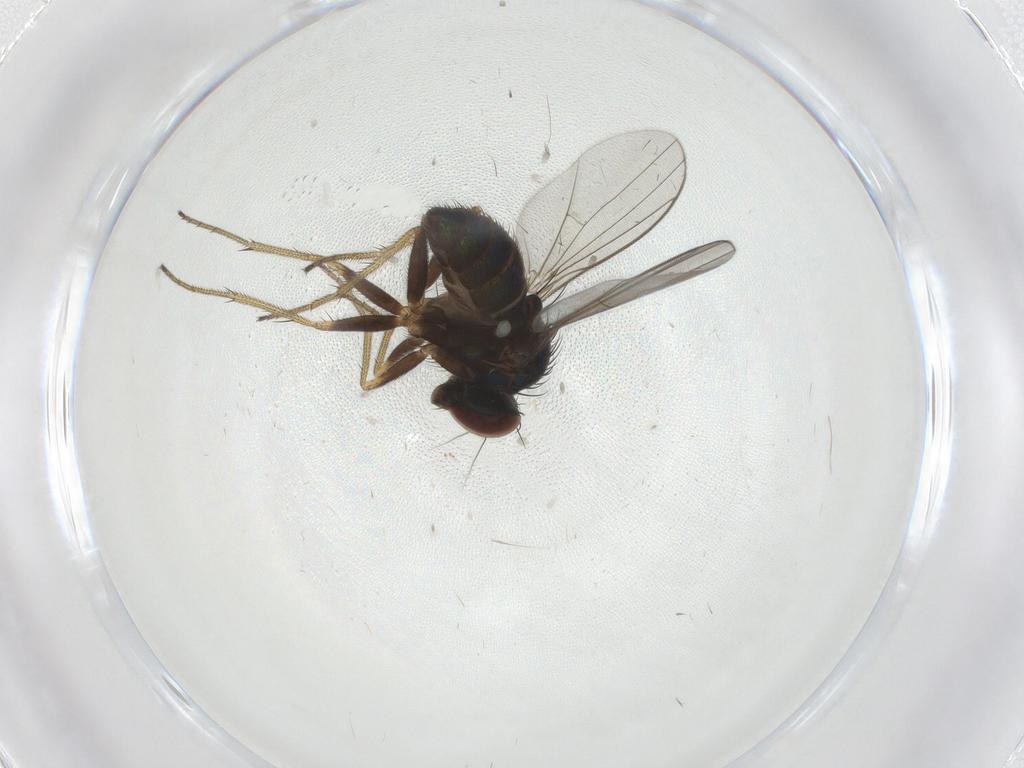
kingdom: Animalia
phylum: Arthropoda
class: Insecta
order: Diptera
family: Dolichopodidae
